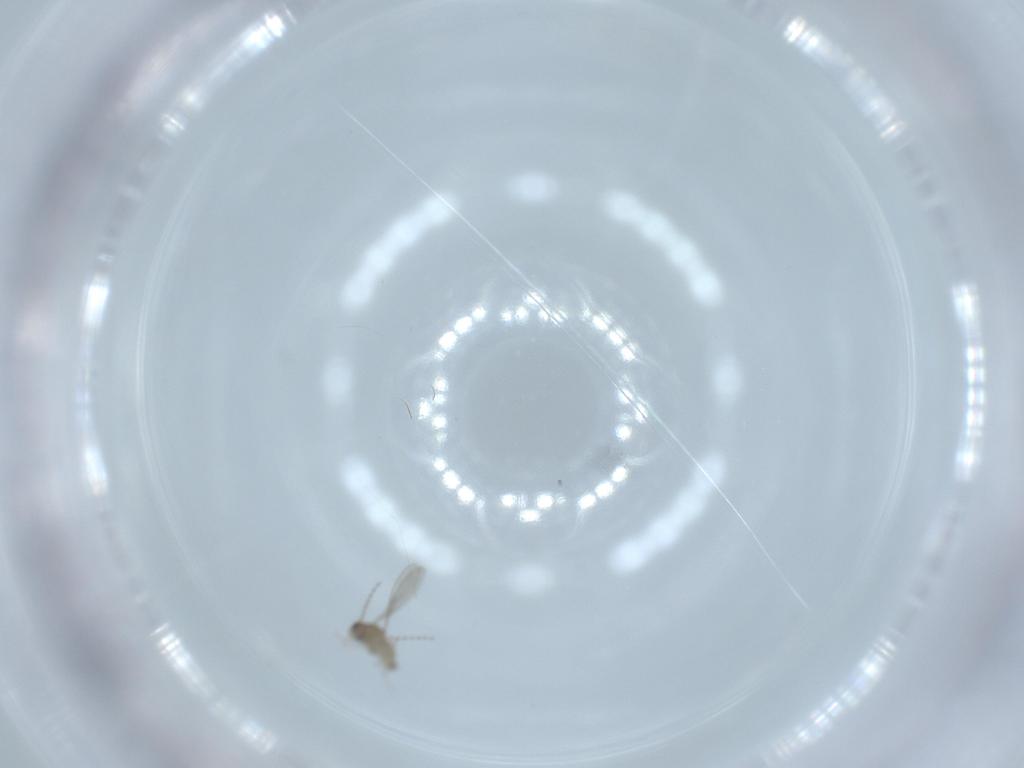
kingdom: Animalia
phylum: Arthropoda
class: Insecta
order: Diptera
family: Cecidomyiidae
